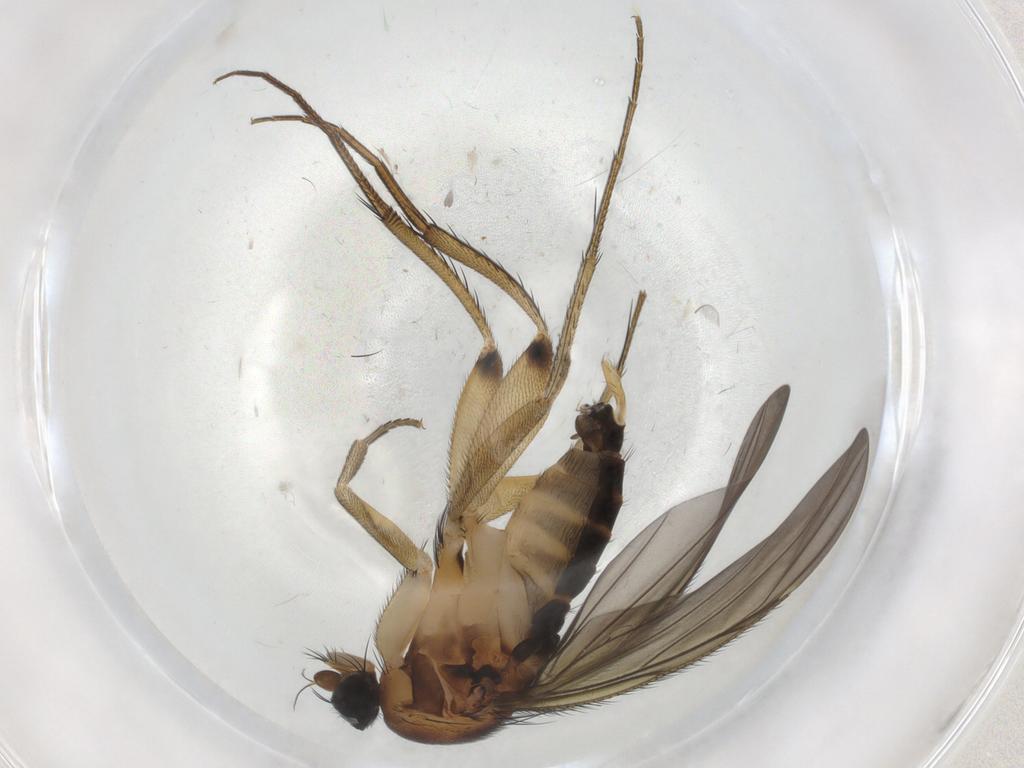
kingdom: Animalia
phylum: Arthropoda
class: Insecta
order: Diptera
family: Phoridae
